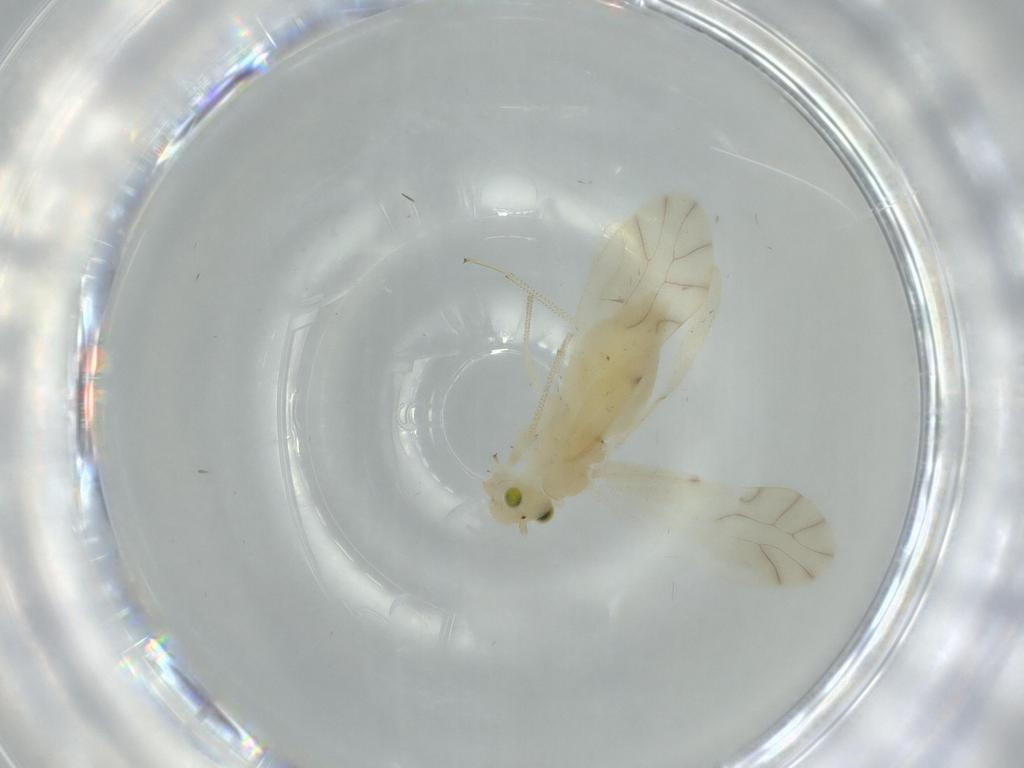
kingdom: Animalia
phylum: Arthropoda
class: Insecta
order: Psocodea
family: Caeciliusidae
